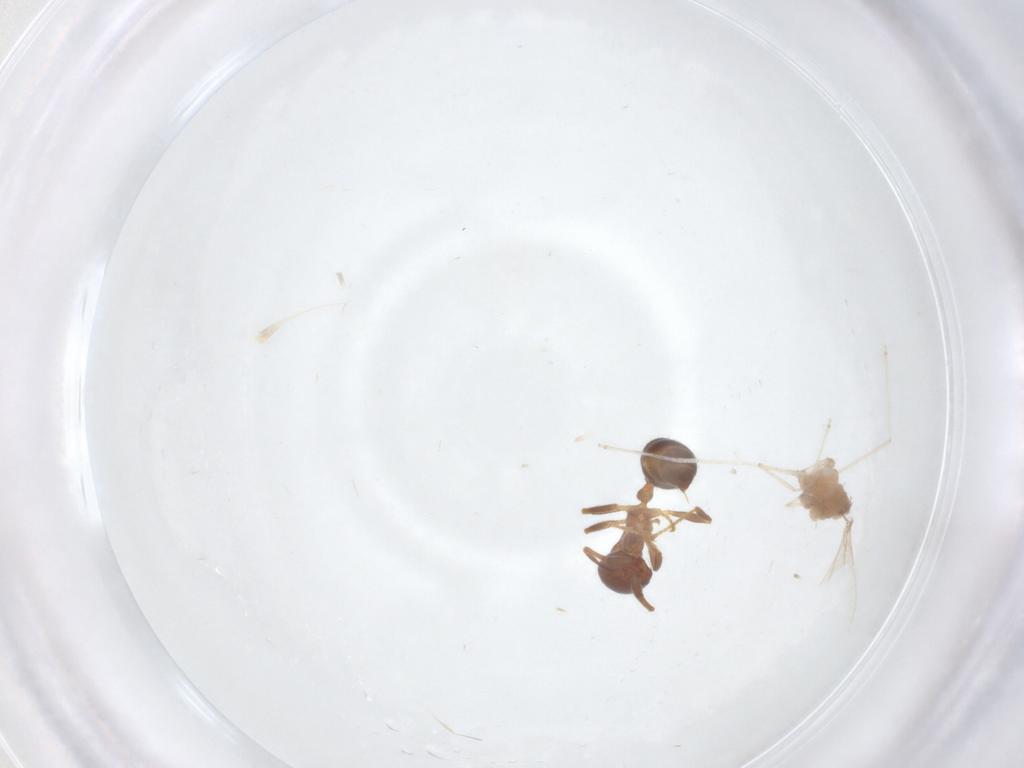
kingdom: Animalia
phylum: Arthropoda
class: Insecta
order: Diptera
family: Cecidomyiidae
